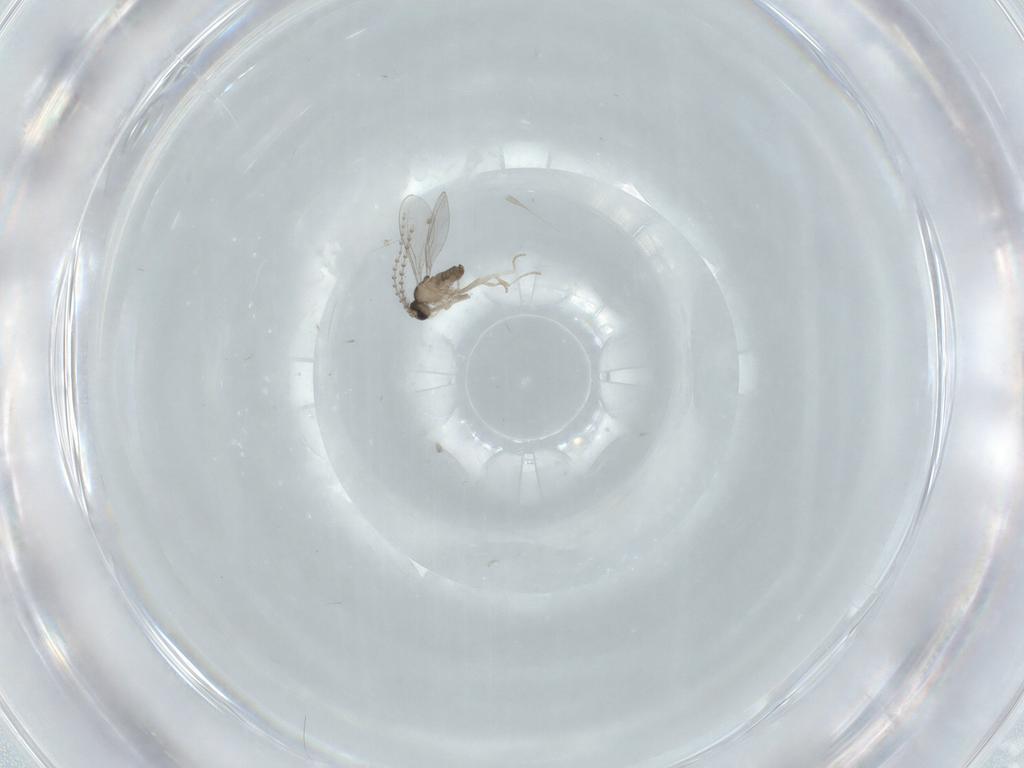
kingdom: Animalia
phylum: Arthropoda
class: Insecta
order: Diptera
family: Cecidomyiidae
